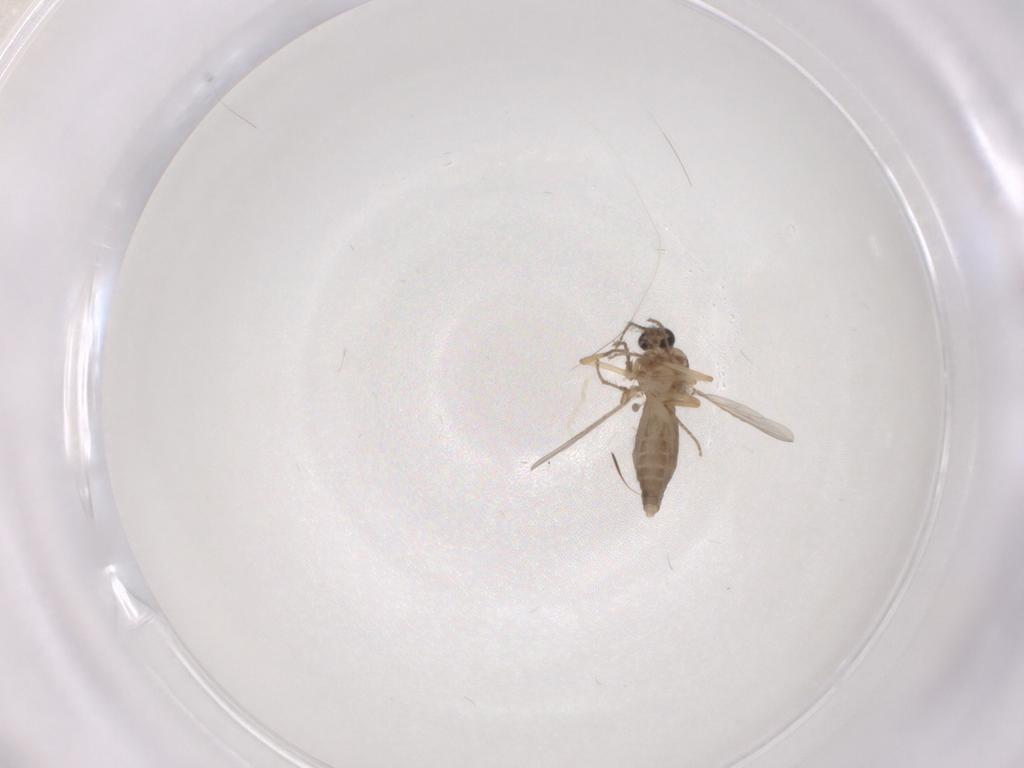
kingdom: Animalia
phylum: Arthropoda
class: Insecta
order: Diptera
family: Ceratopogonidae
